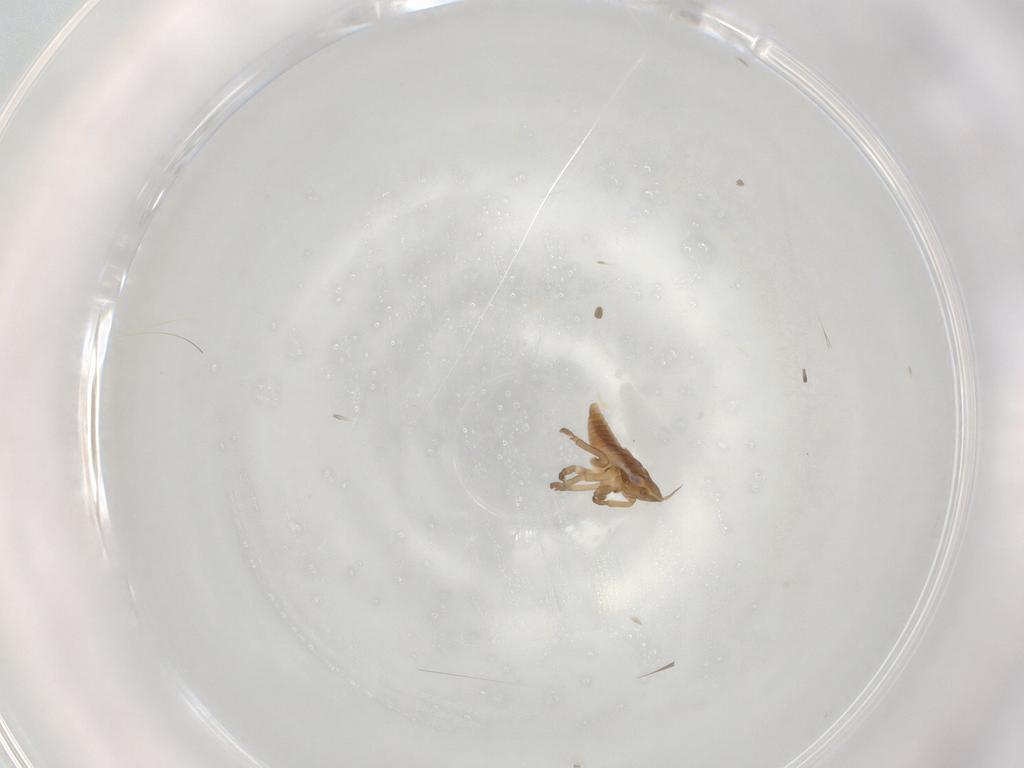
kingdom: Animalia
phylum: Arthropoda
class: Insecta
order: Hemiptera
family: Cicadellidae
